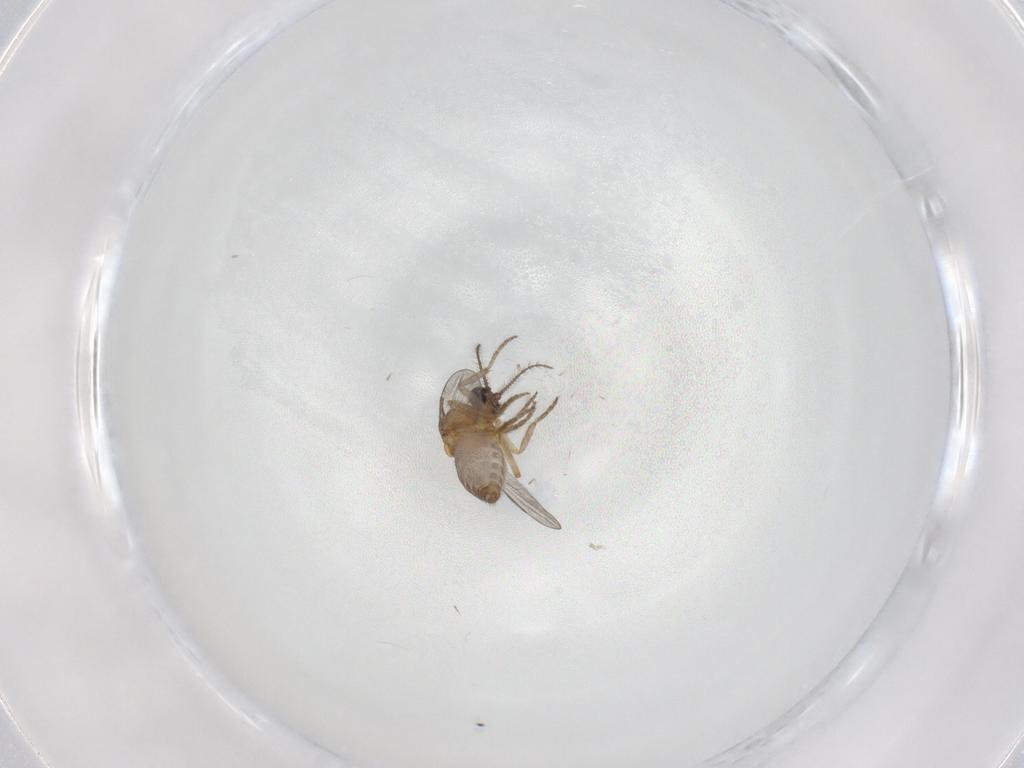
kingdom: Animalia
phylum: Arthropoda
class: Insecta
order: Diptera
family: Ceratopogonidae
